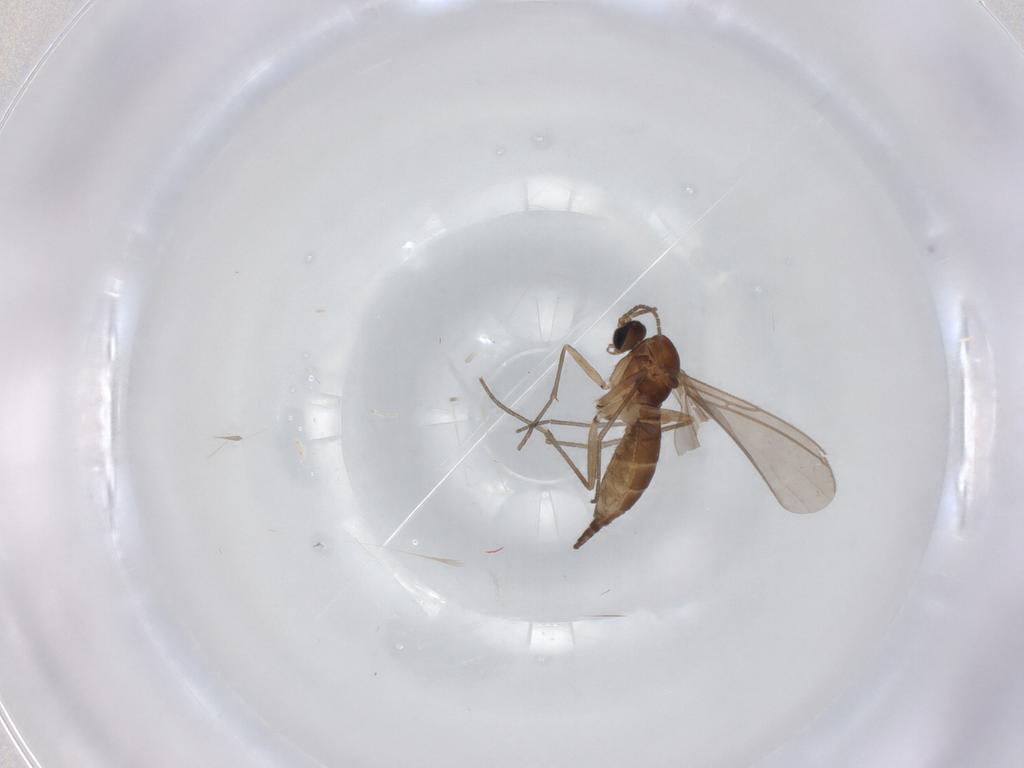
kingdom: Animalia
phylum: Arthropoda
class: Insecta
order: Diptera
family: Sciaridae
